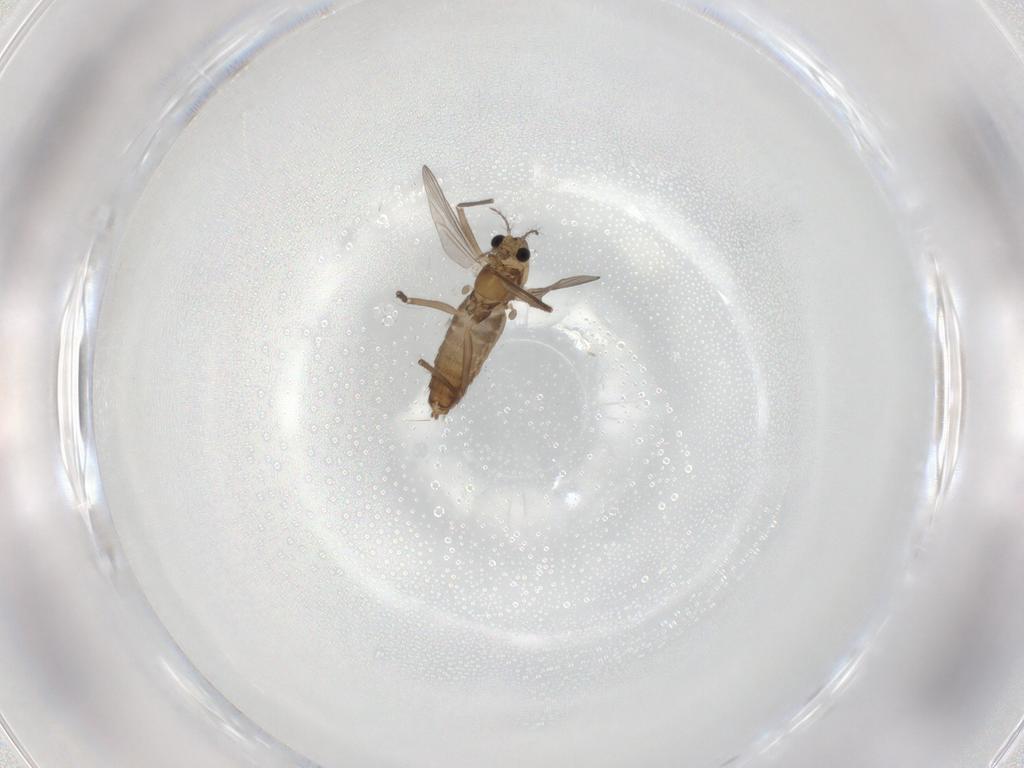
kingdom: Animalia
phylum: Arthropoda
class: Insecta
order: Diptera
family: Chironomidae
